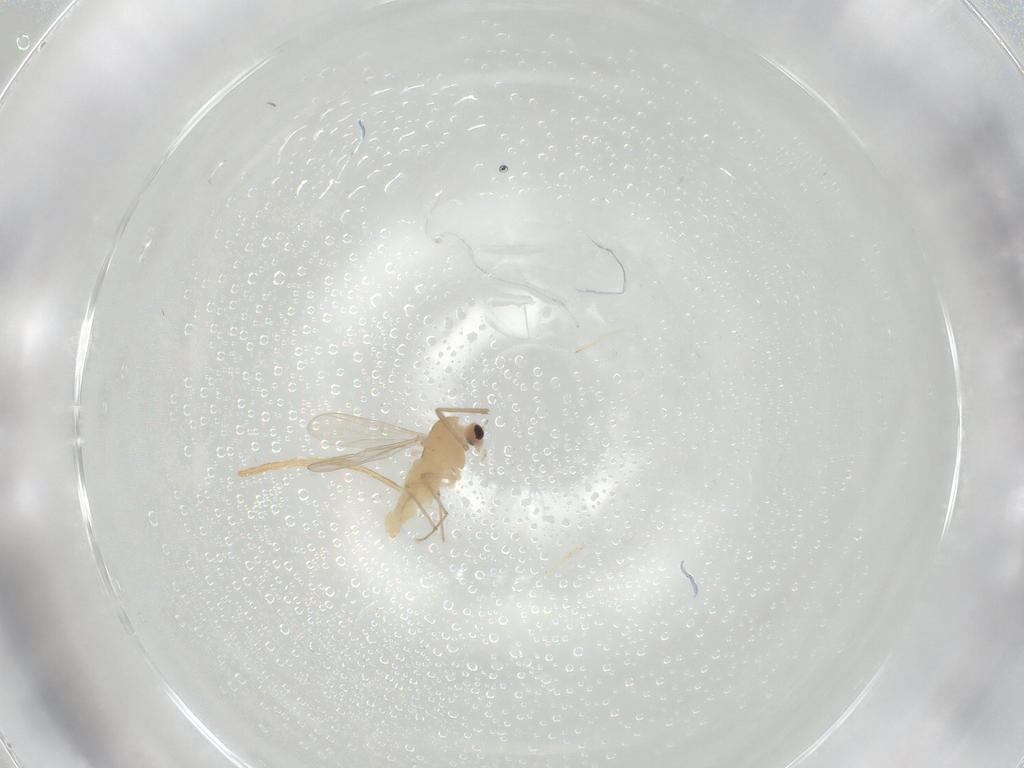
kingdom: Animalia
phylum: Arthropoda
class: Insecta
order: Diptera
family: Chironomidae
